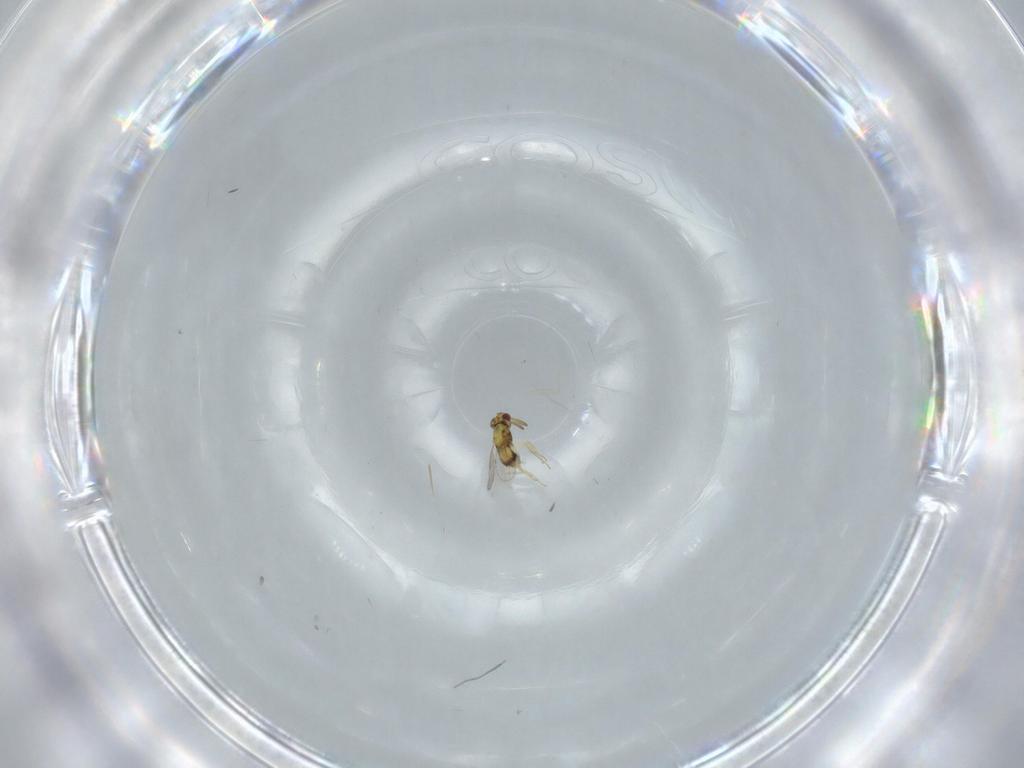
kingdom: Animalia
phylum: Arthropoda
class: Insecta
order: Hymenoptera
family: Aphelinidae
